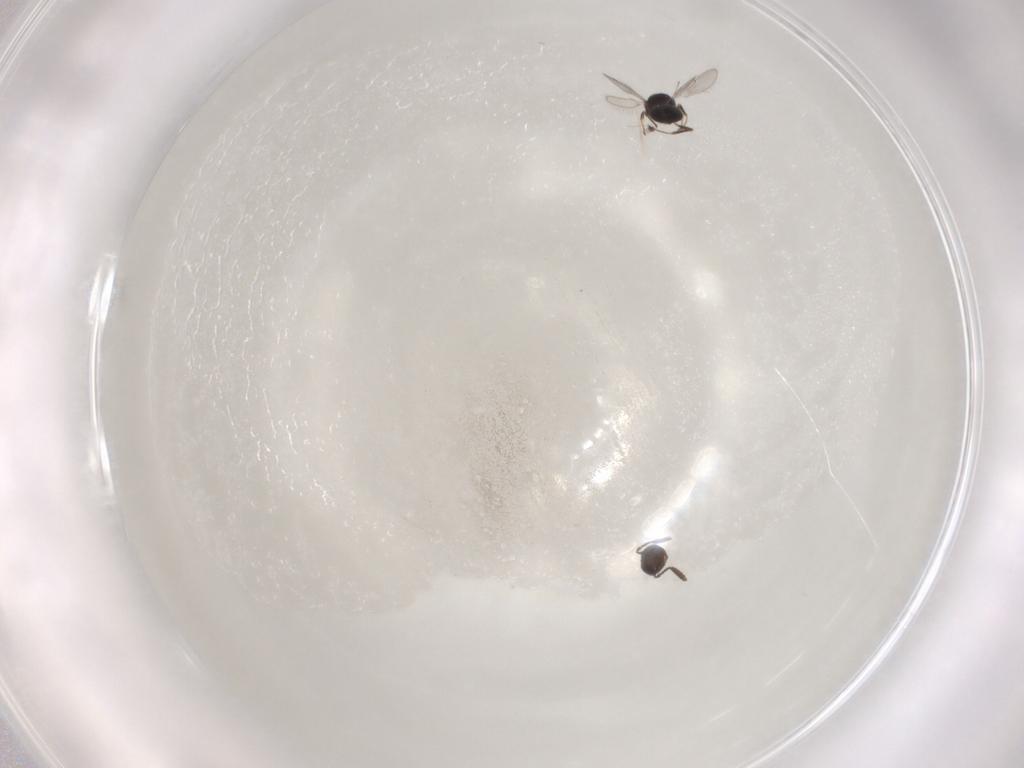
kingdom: Animalia
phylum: Arthropoda
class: Insecta
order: Hymenoptera
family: Scelionidae
